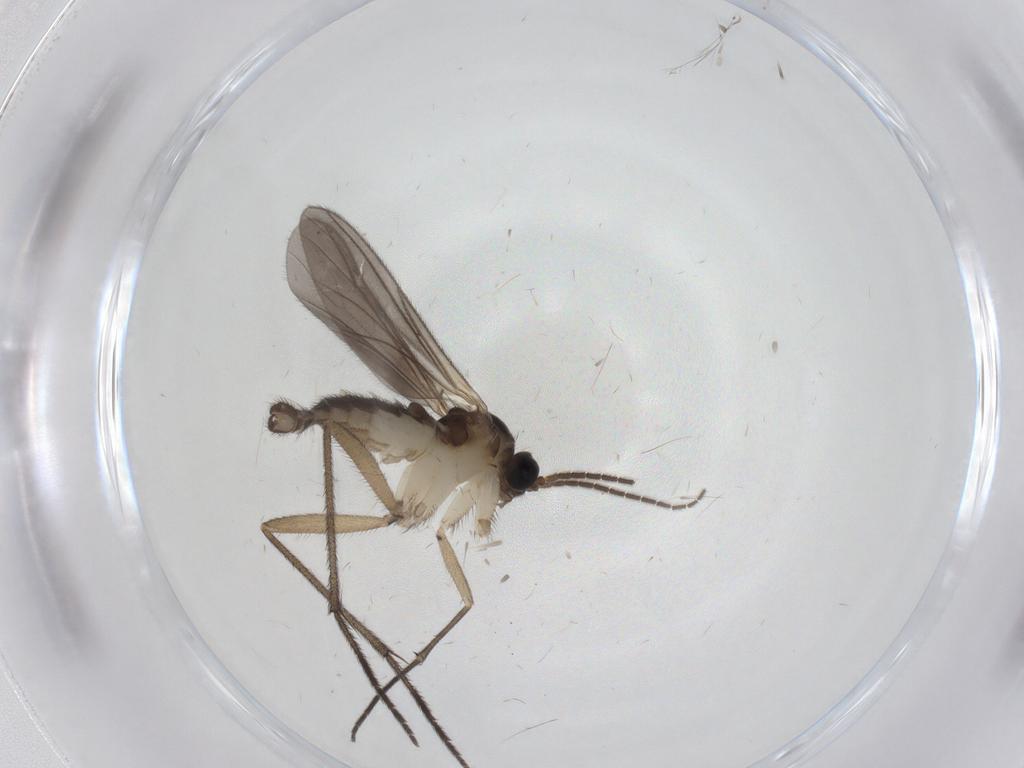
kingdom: Animalia
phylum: Arthropoda
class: Insecta
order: Diptera
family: Sciaridae
